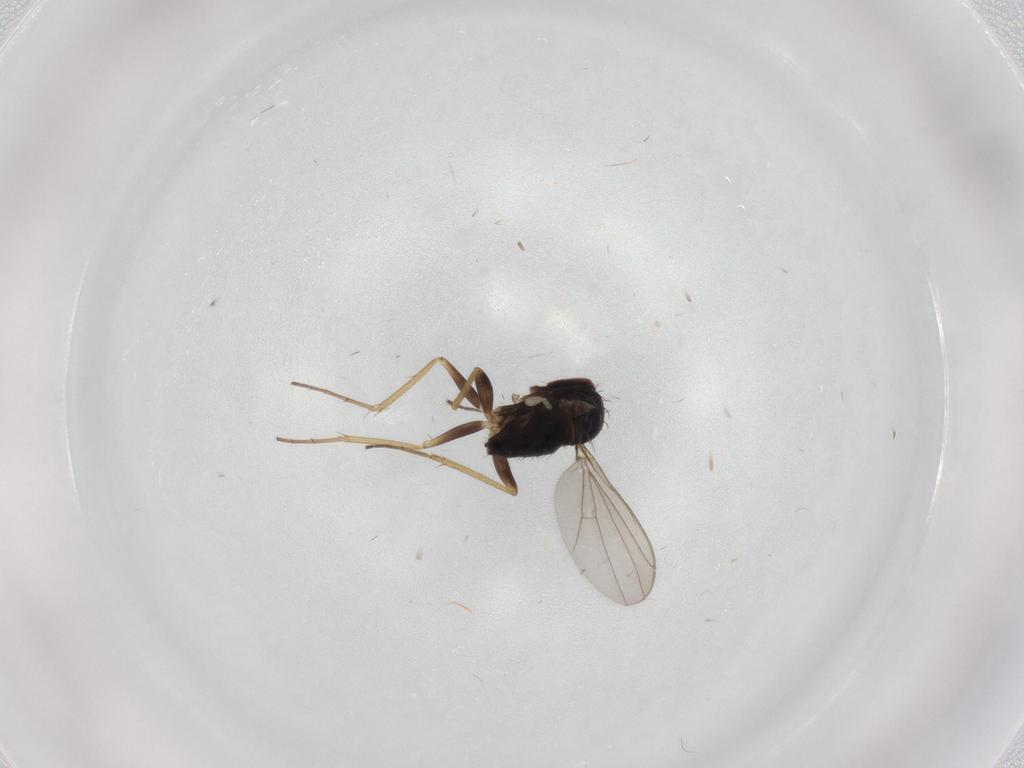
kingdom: Animalia
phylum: Arthropoda
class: Insecta
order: Diptera
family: Dolichopodidae
